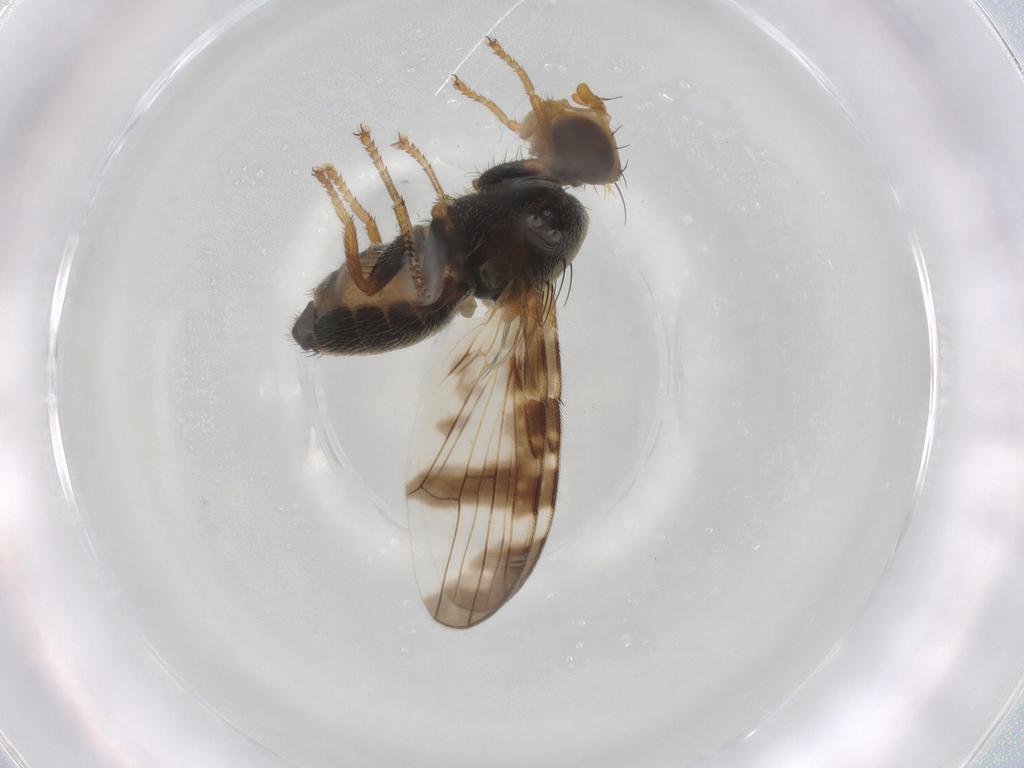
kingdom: Animalia
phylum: Arthropoda
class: Insecta
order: Diptera
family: Tephritidae
